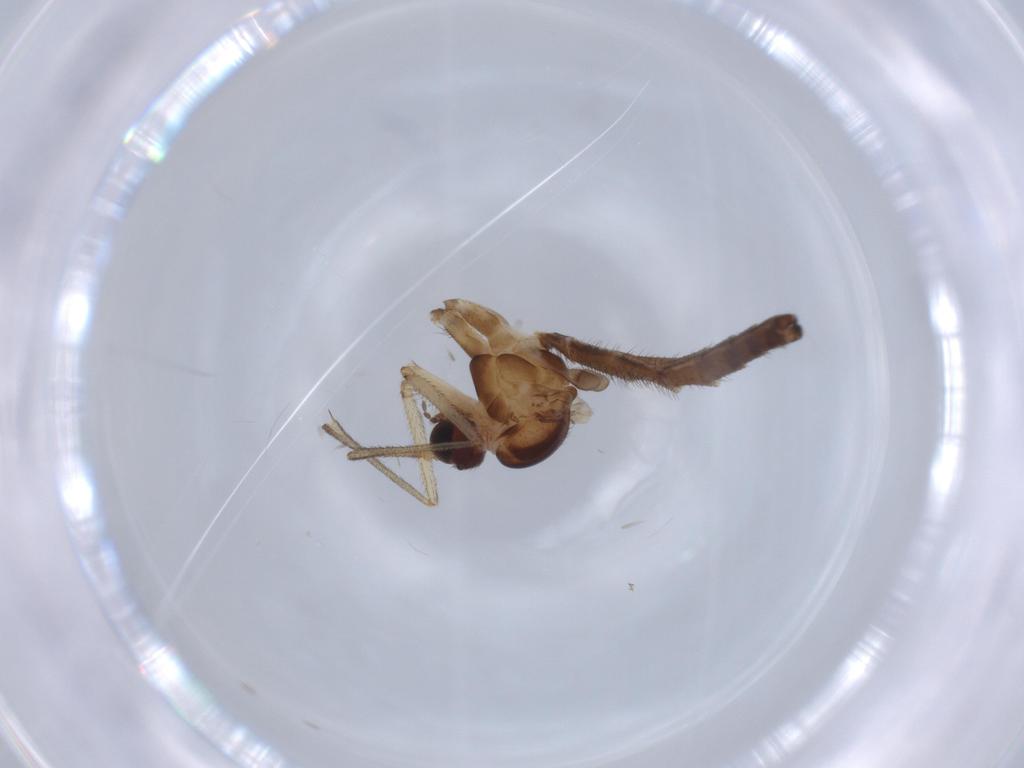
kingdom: Animalia
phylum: Arthropoda
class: Insecta
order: Diptera
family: Keroplatidae
